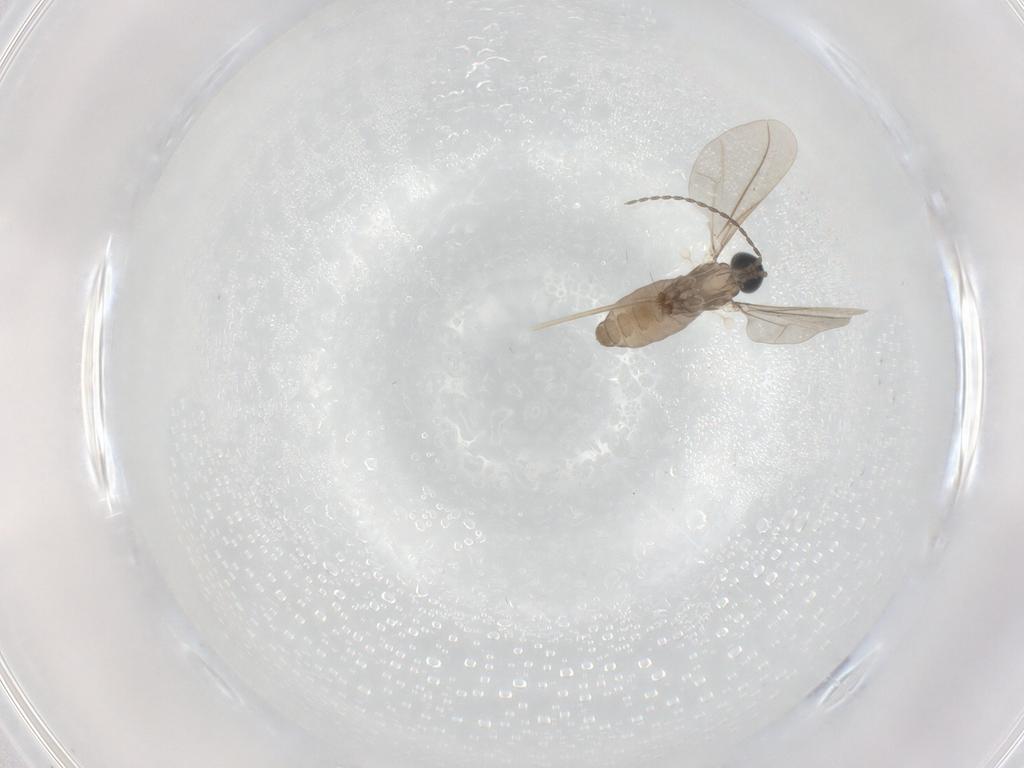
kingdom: Animalia
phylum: Arthropoda
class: Insecta
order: Diptera
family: Cecidomyiidae
